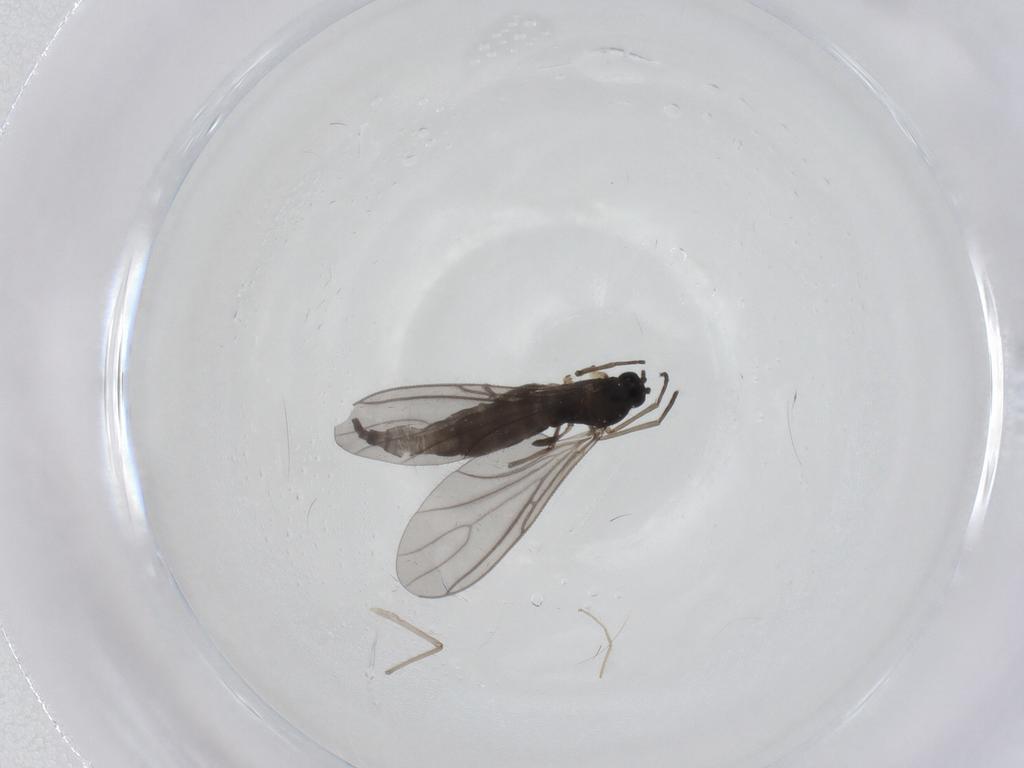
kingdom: Animalia
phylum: Arthropoda
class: Insecta
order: Diptera
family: Sciaridae
